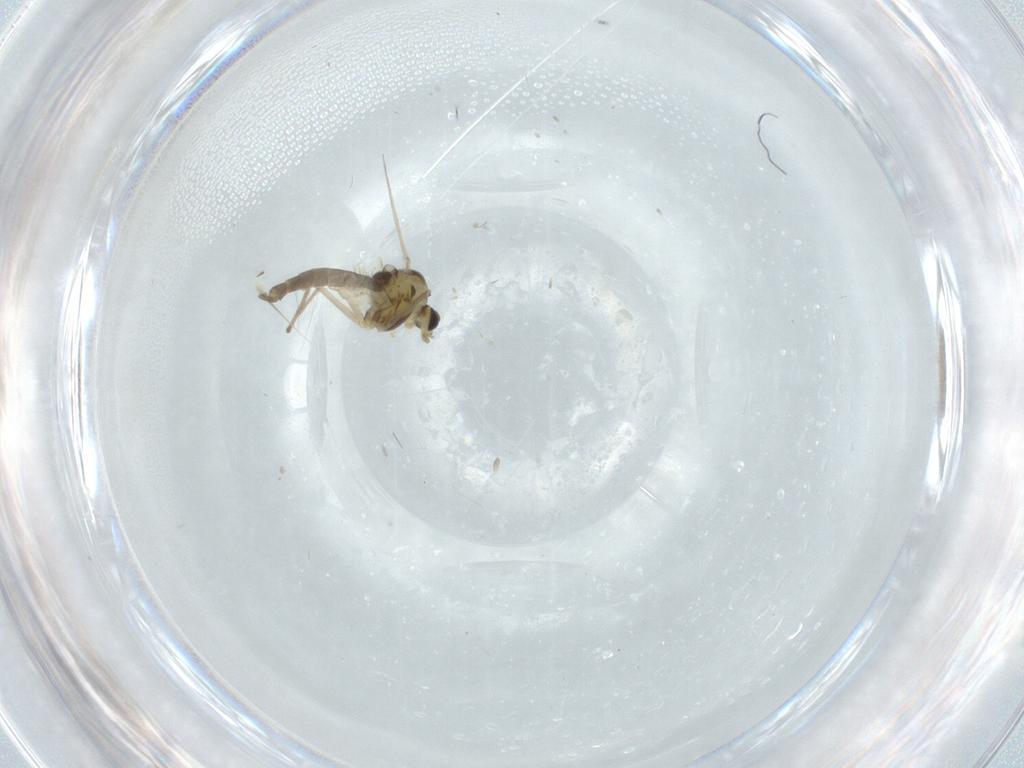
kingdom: Animalia
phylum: Arthropoda
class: Insecta
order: Diptera
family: Chironomidae
